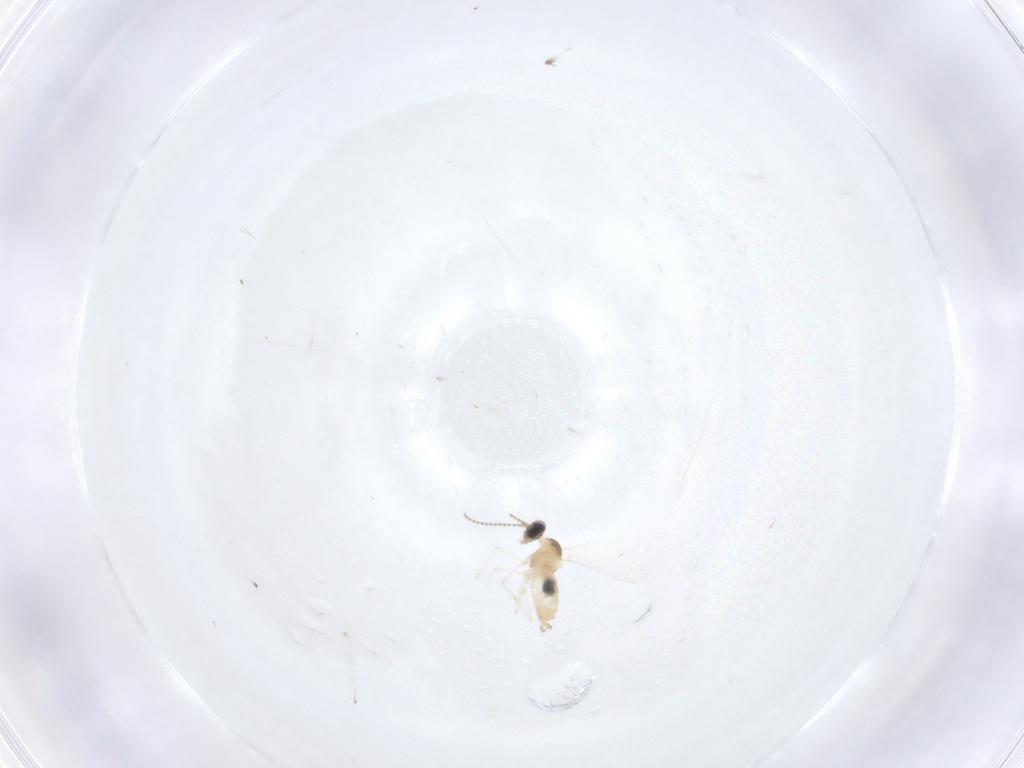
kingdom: Animalia
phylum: Arthropoda
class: Insecta
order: Diptera
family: Cecidomyiidae
